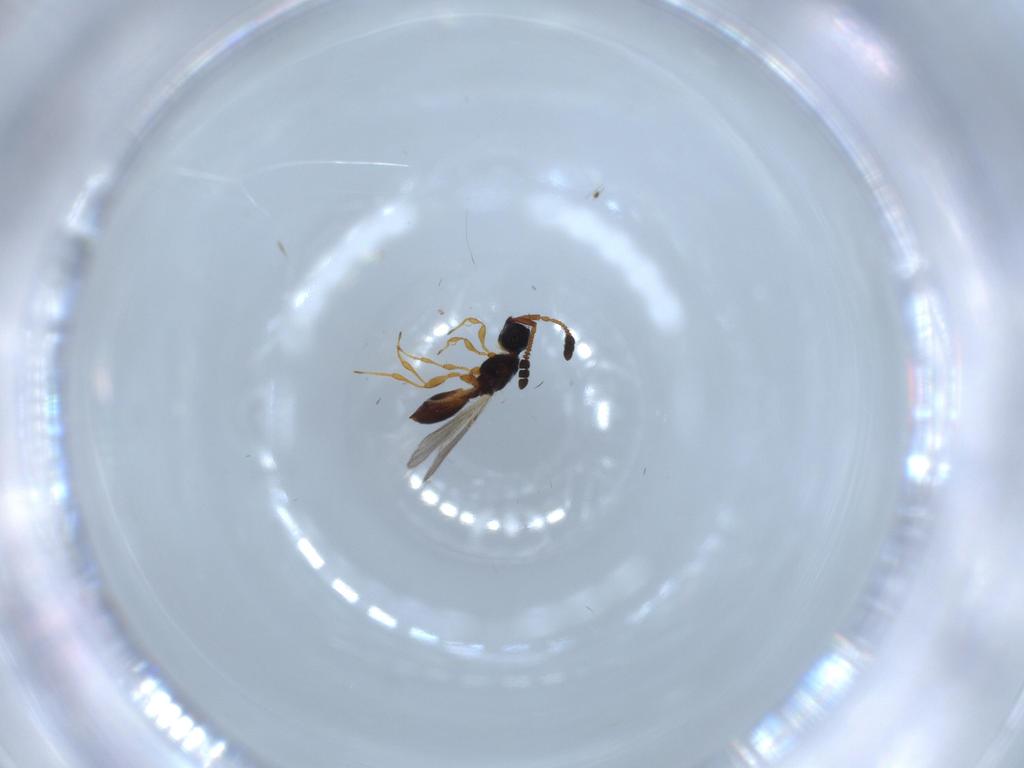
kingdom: Animalia
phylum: Arthropoda
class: Insecta
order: Hymenoptera
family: Diapriidae
